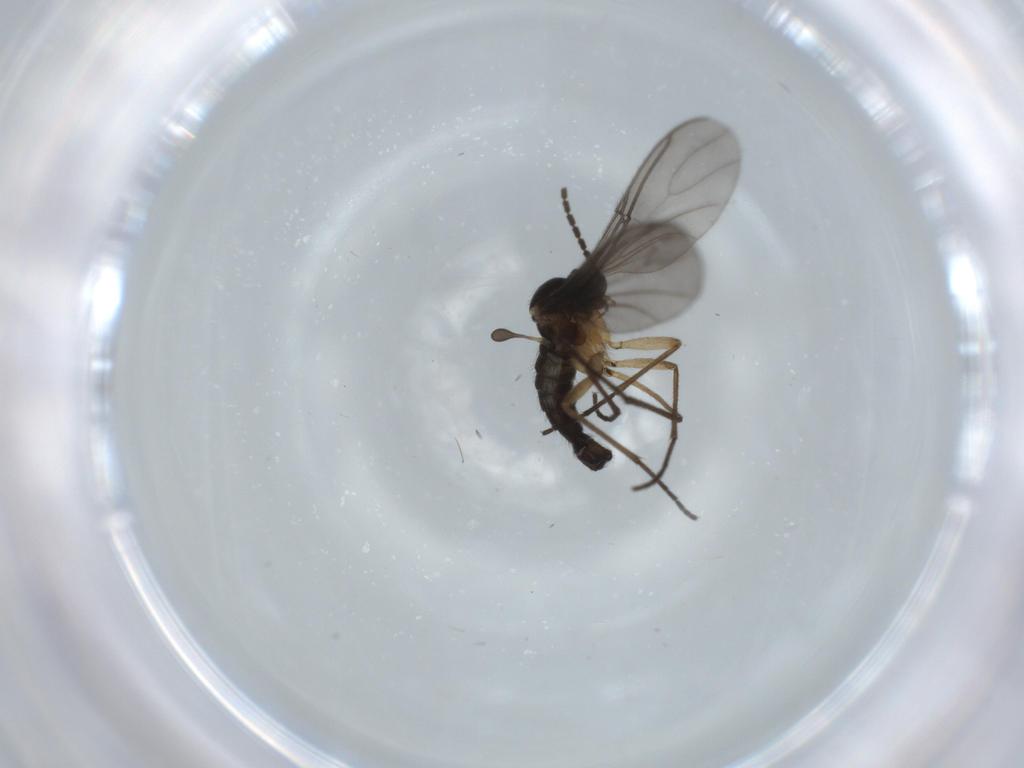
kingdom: Animalia
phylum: Arthropoda
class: Insecta
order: Diptera
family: Sciaridae
